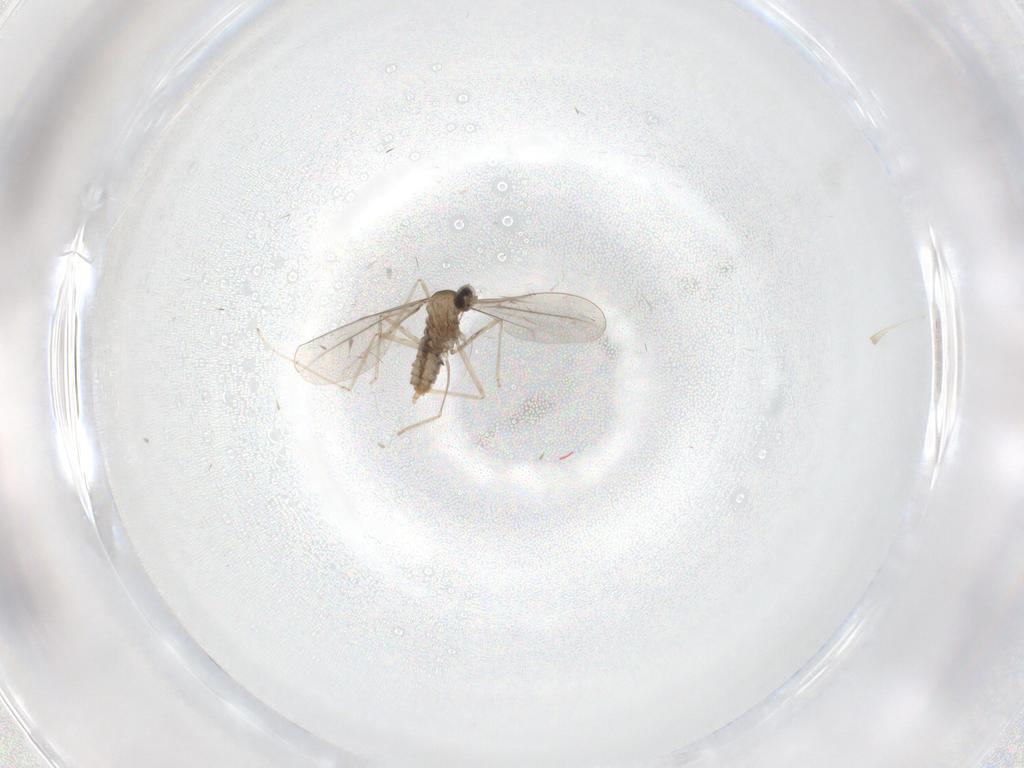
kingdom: Animalia
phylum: Arthropoda
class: Insecta
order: Diptera
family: Cecidomyiidae
